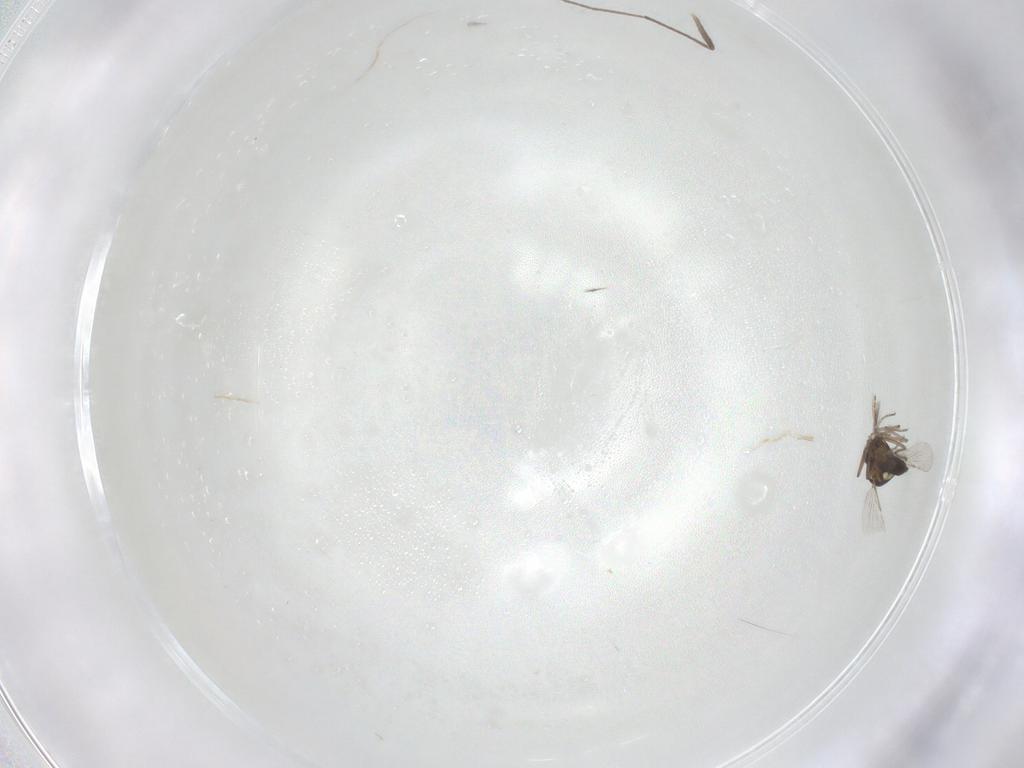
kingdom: Animalia
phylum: Arthropoda
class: Insecta
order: Diptera
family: Ceratopogonidae
